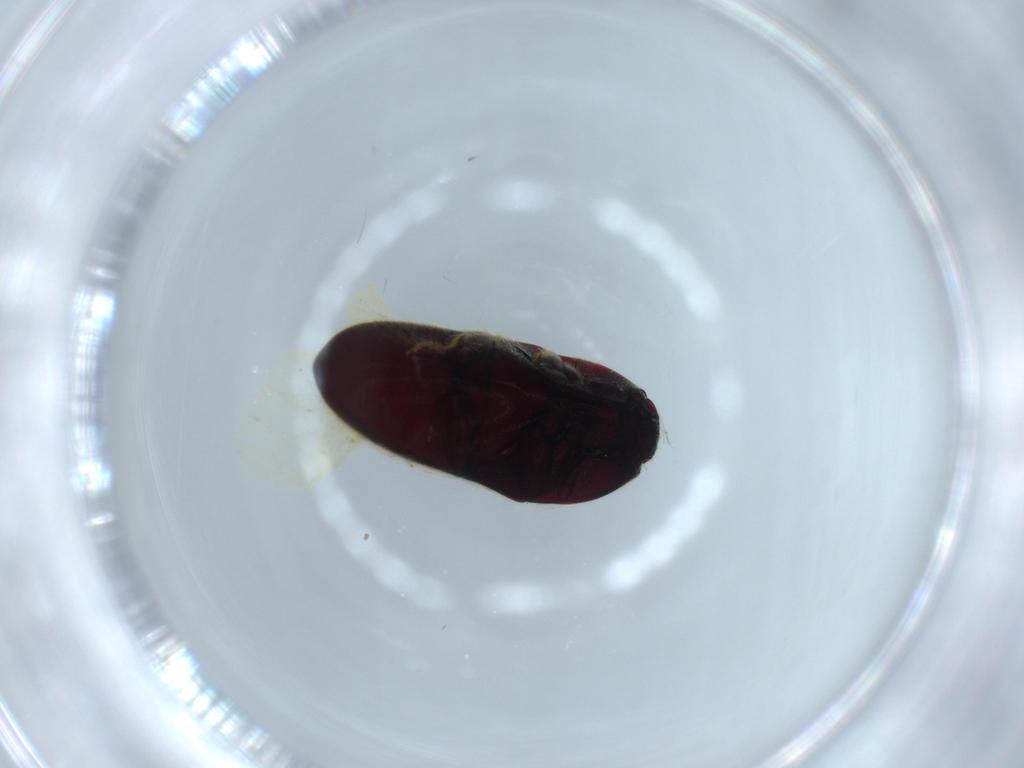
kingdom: Animalia
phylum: Arthropoda
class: Insecta
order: Coleoptera
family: Throscidae
